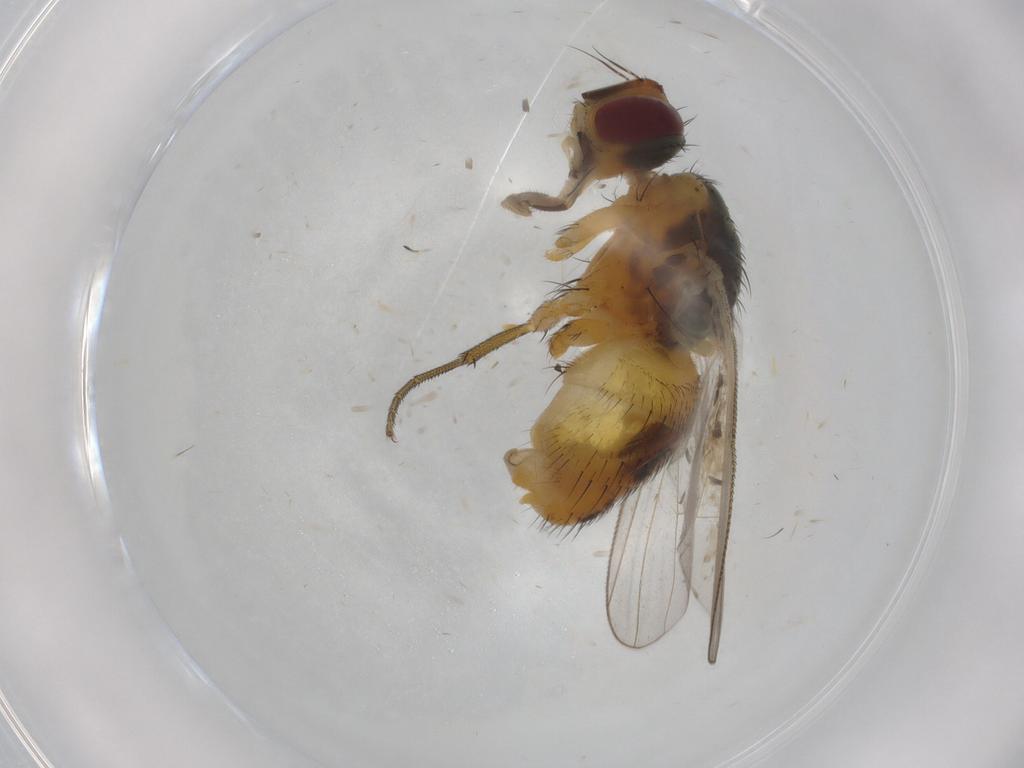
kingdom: Animalia
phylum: Arthropoda
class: Insecta
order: Diptera
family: Muscidae
